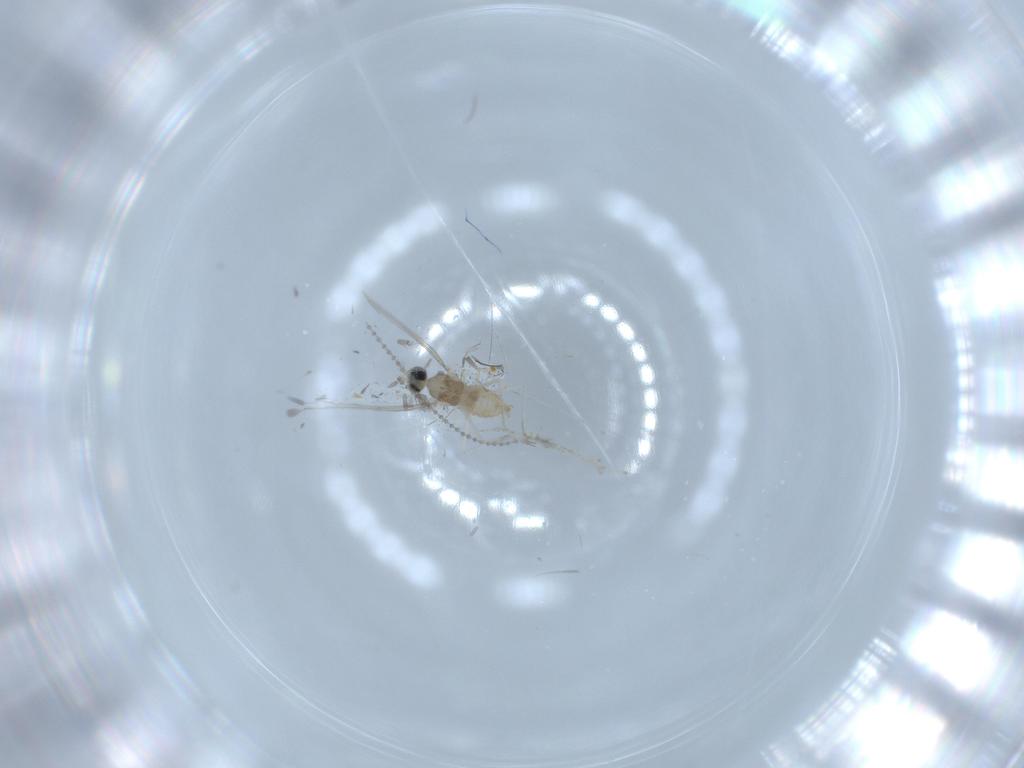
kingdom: Animalia
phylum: Arthropoda
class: Insecta
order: Diptera
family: Cecidomyiidae
